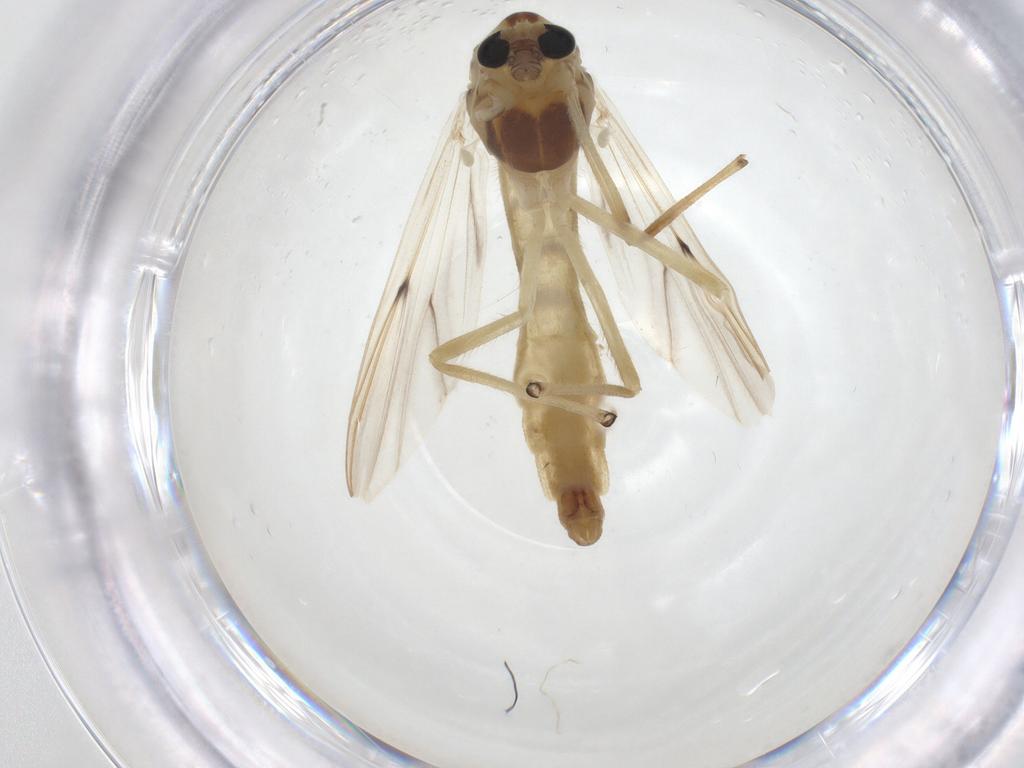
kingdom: Animalia
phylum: Arthropoda
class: Insecta
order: Diptera
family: Chironomidae
